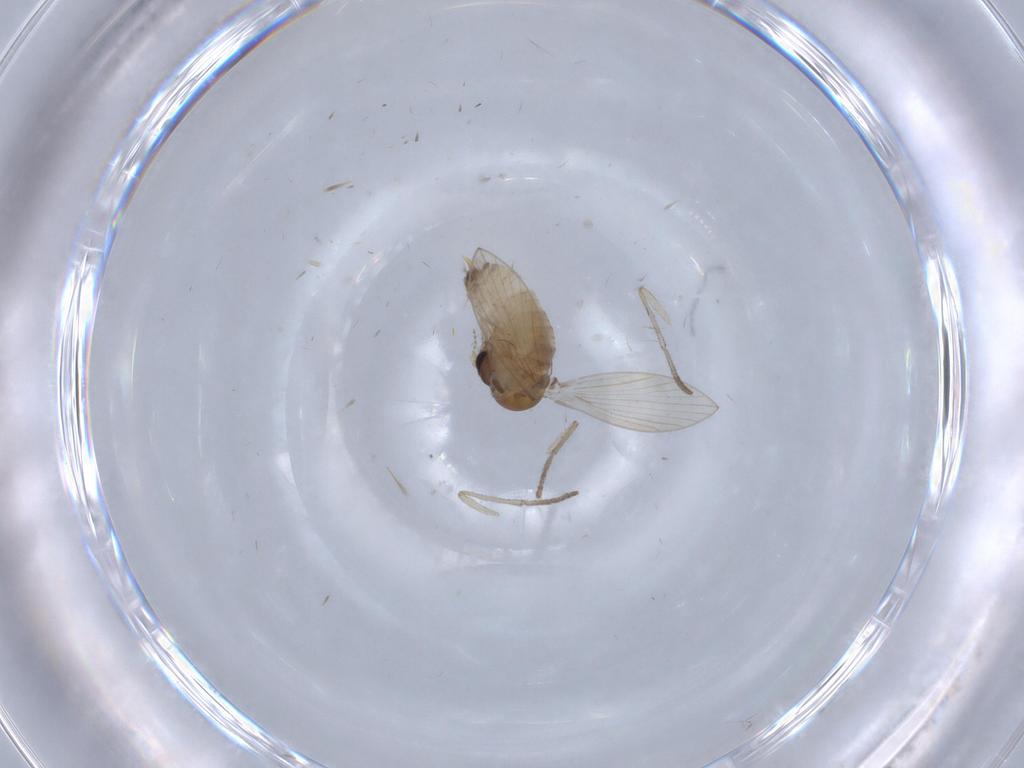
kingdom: Animalia
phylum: Arthropoda
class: Insecta
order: Diptera
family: Psychodidae
